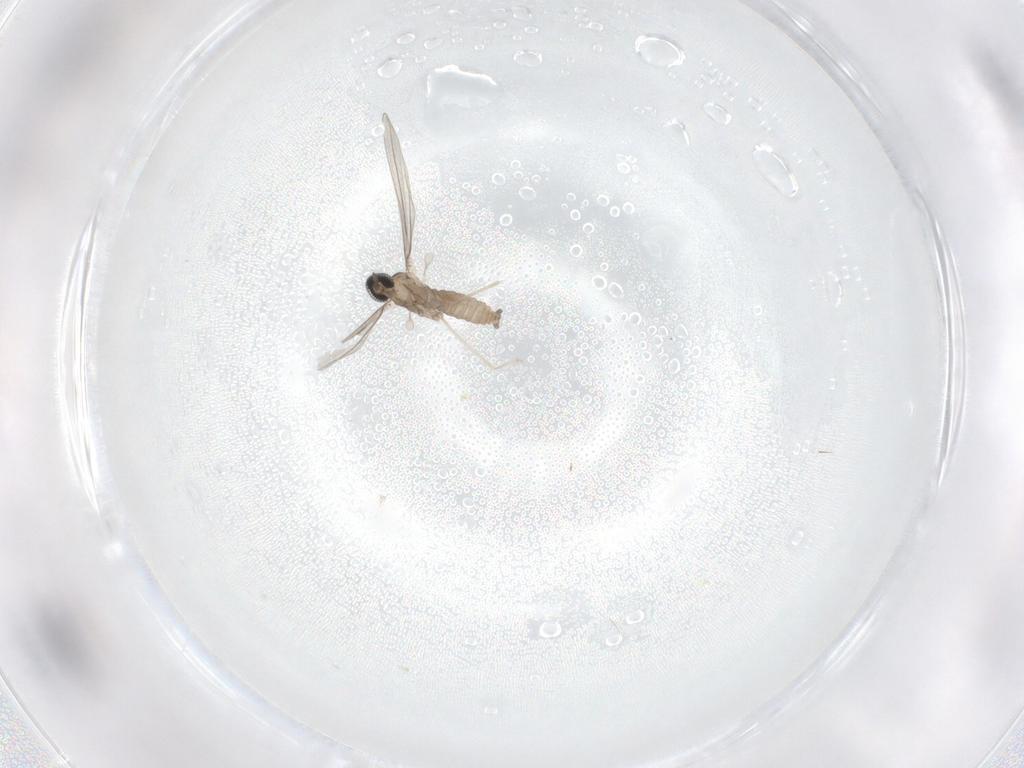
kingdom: Animalia
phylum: Arthropoda
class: Insecta
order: Diptera
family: Cecidomyiidae
